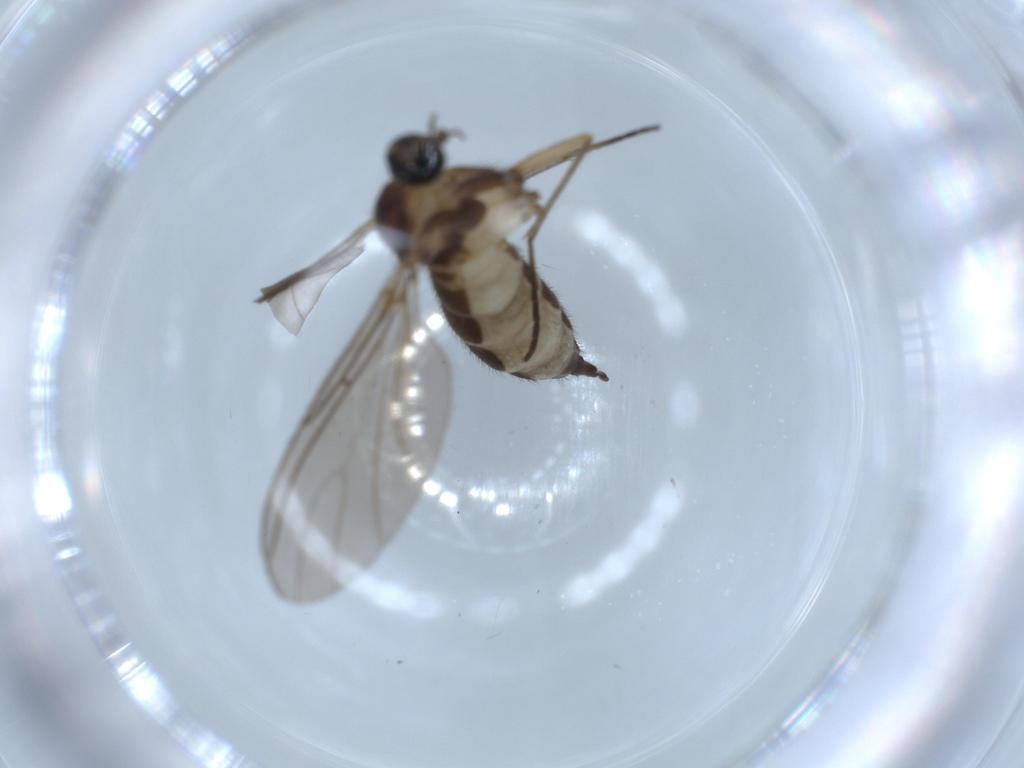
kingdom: Animalia
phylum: Arthropoda
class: Insecta
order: Diptera
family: Sciaridae
